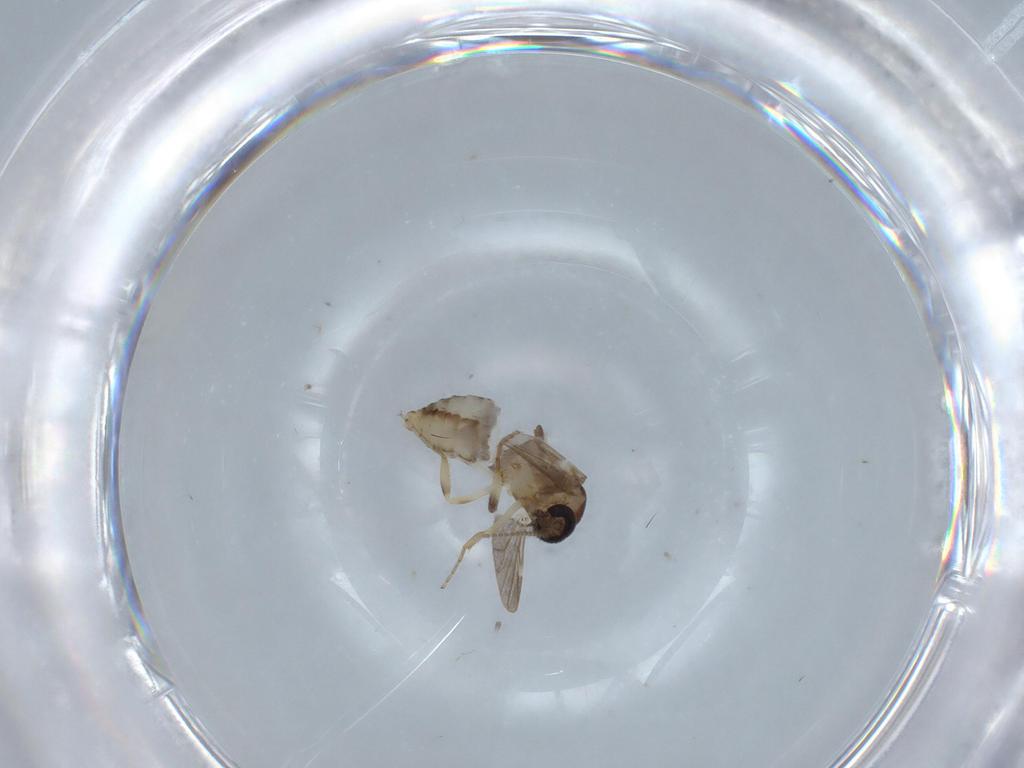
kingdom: Animalia
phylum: Arthropoda
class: Insecta
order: Diptera
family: Ceratopogonidae
